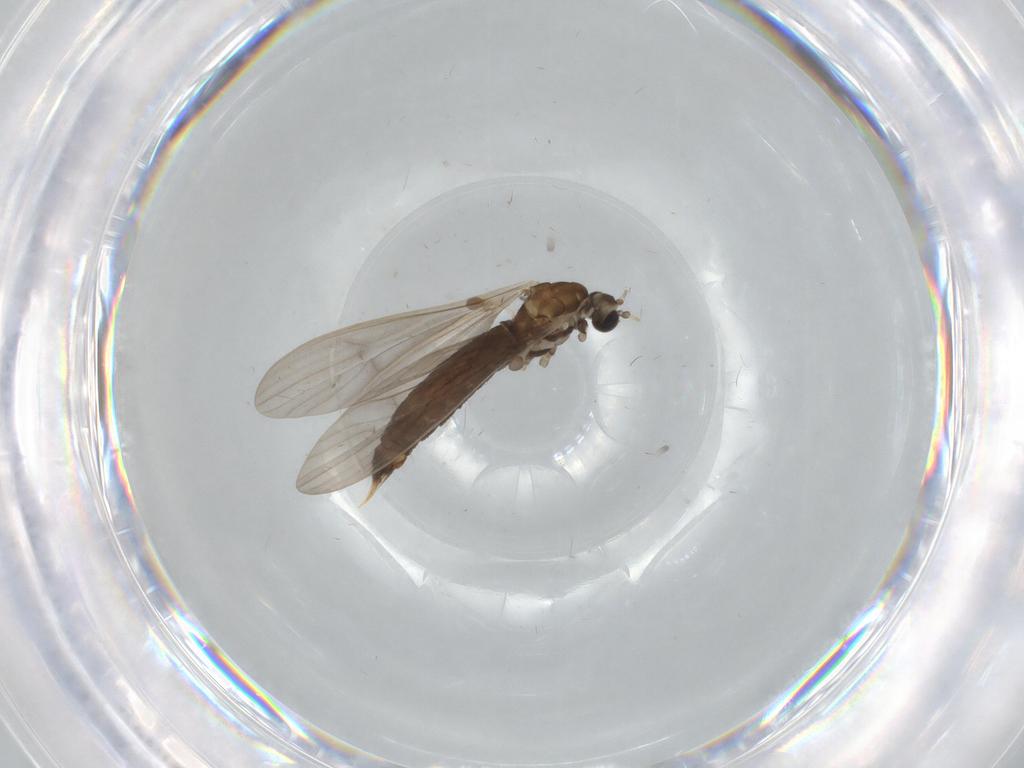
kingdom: Animalia
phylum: Arthropoda
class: Insecta
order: Diptera
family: Limoniidae
